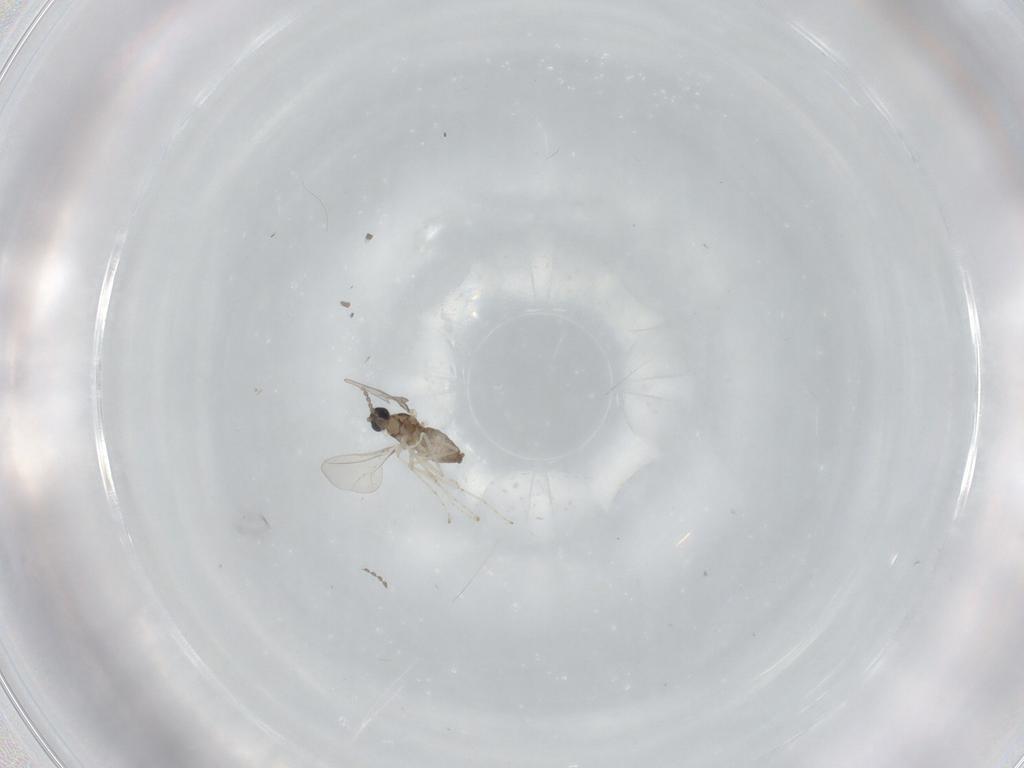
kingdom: Animalia
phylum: Arthropoda
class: Insecta
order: Diptera
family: Cecidomyiidae
